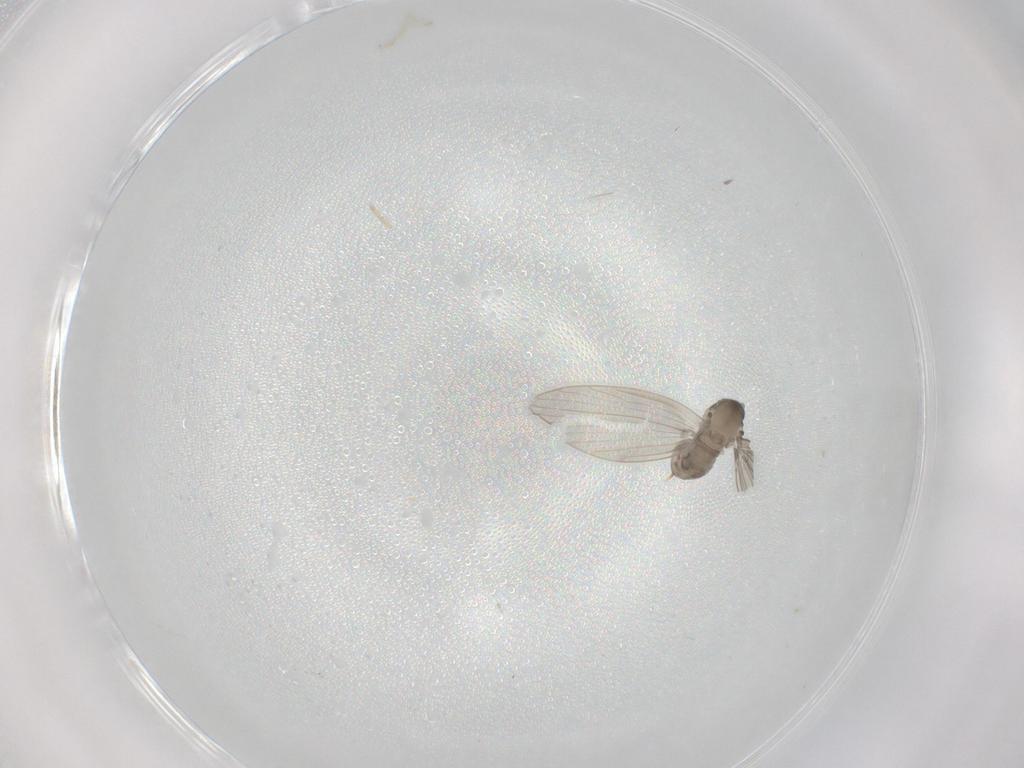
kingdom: Animalia
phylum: Arthropoda
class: Insecta
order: Diptera
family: Psychodidae
